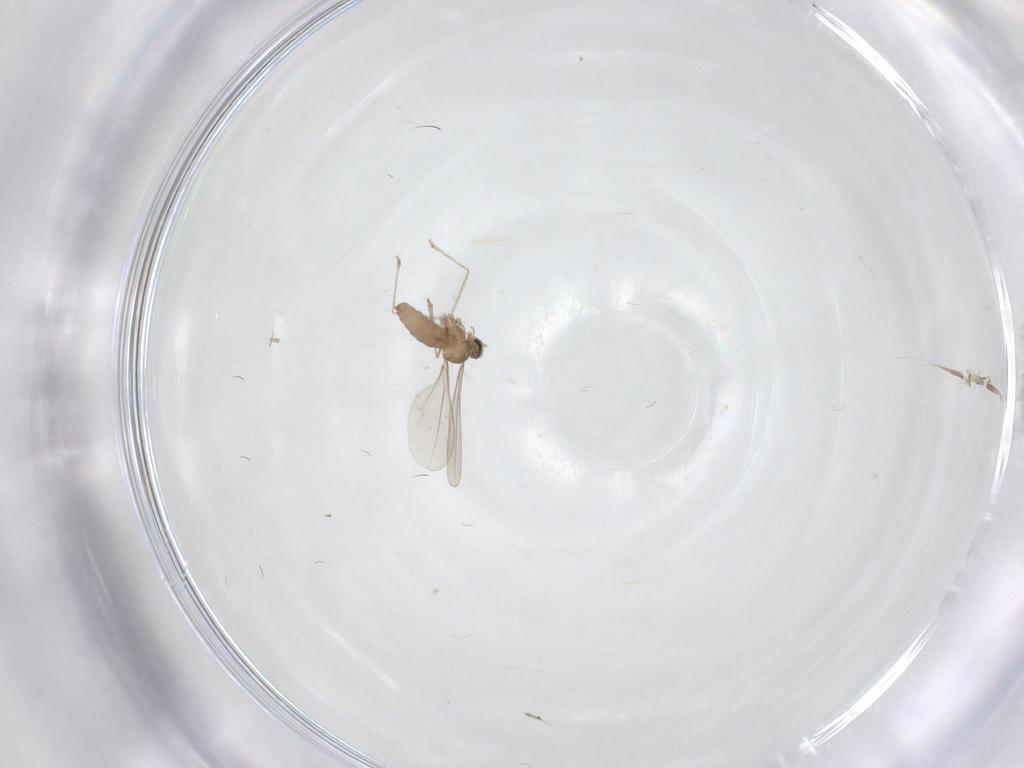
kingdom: Animalia
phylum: Arthropoda
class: Insecta
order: Diptera
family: Cecidomyiidae
